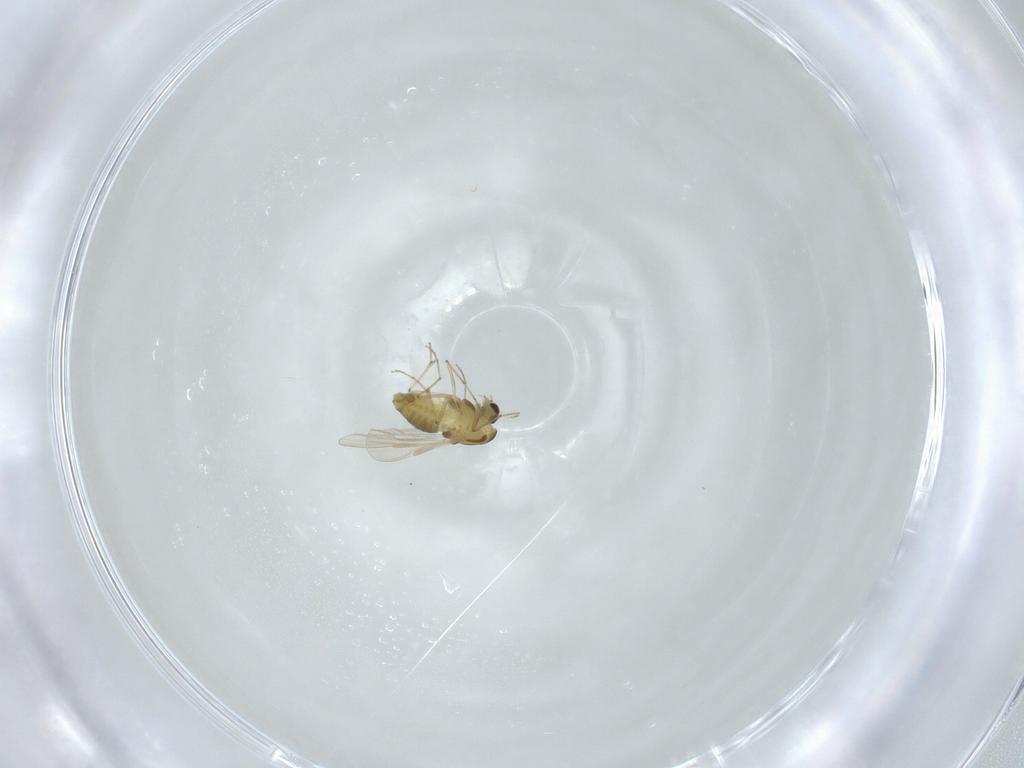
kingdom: Animalia
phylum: Arthropoda
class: Insecta
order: Diptera
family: Chironomidae
